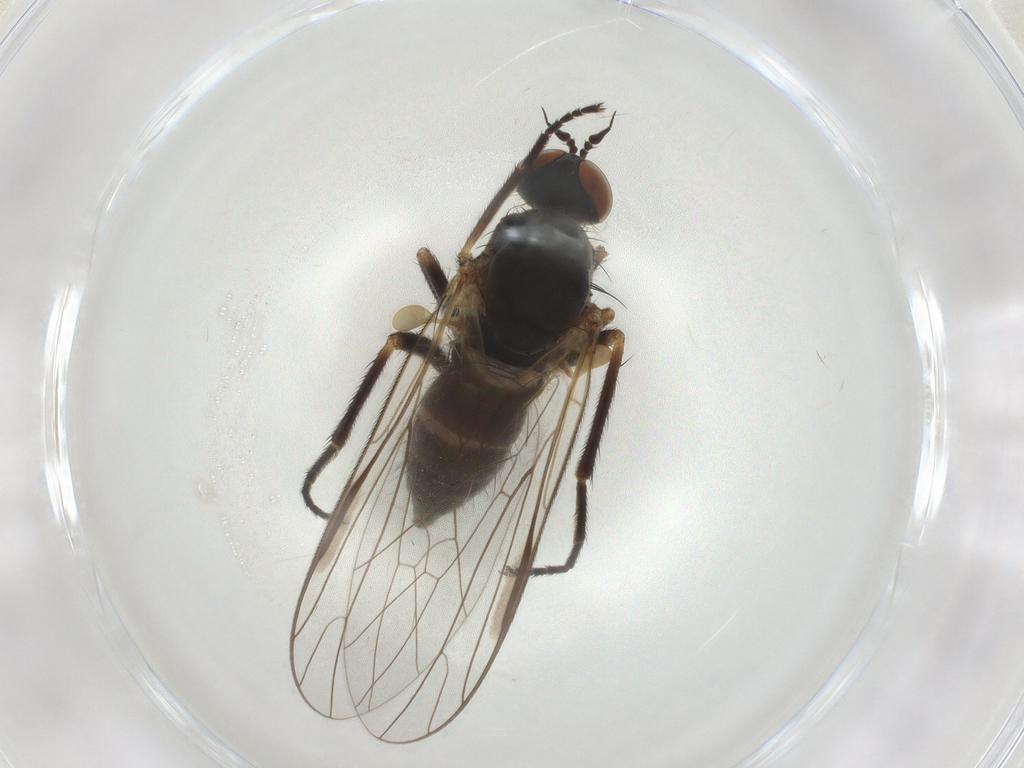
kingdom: Animalia
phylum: Arthropoda
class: Insecta
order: Diptera
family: Empididae
